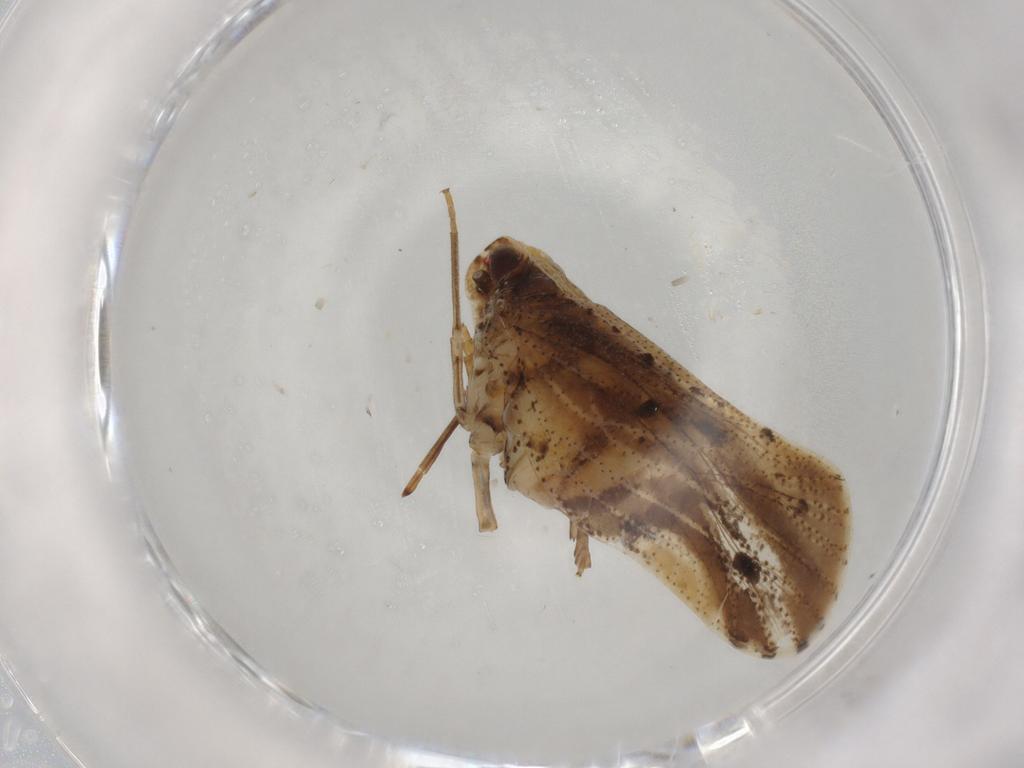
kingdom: Animalia
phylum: Arthropoda
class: Insecta
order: Hemiptera
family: Cixiidae
